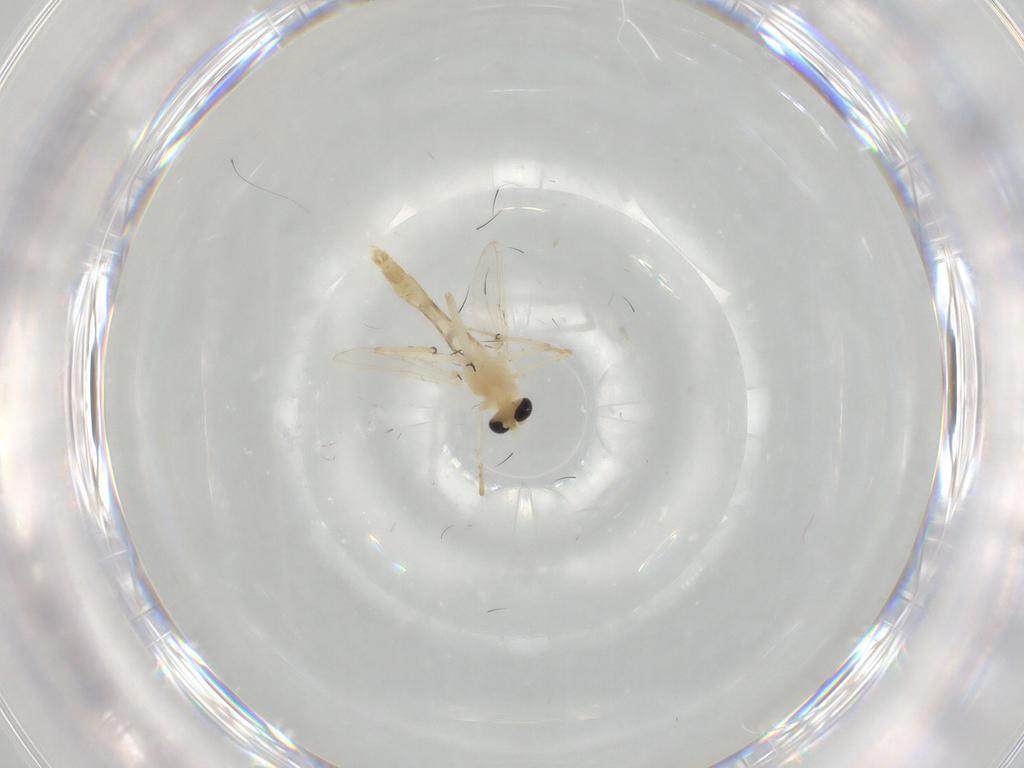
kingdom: Animalia
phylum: Arthropoda
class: Insecta
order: Diptera
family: Chironomidae
